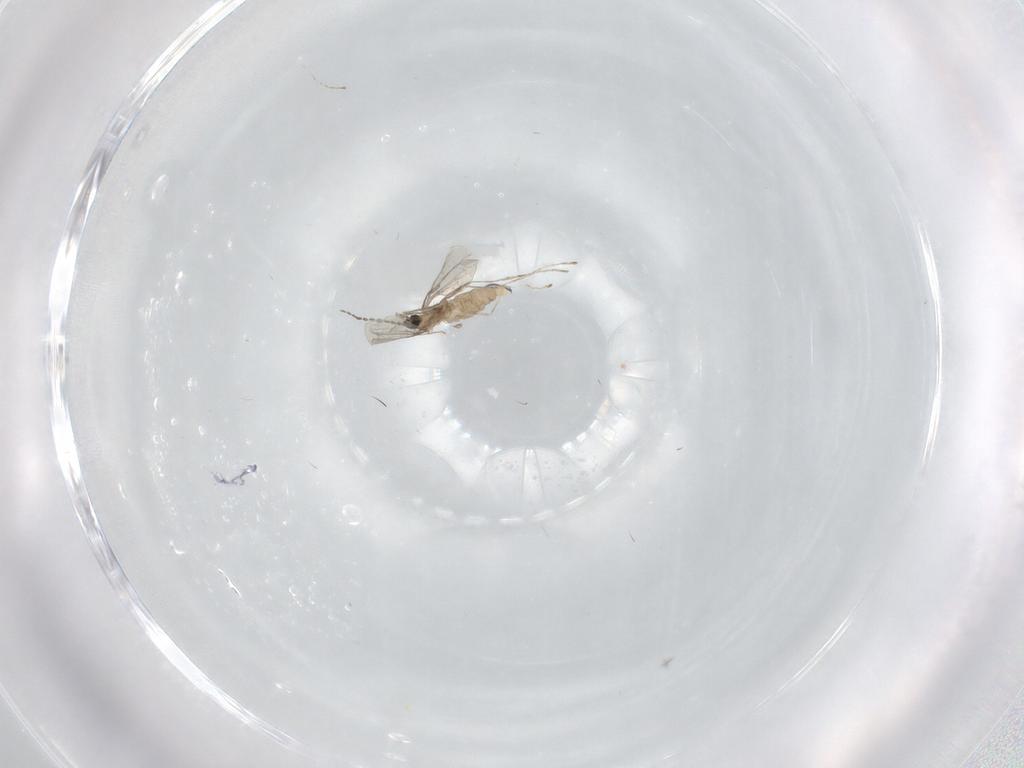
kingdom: Animalia
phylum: Arthropoda
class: Insecta
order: Diptera
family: Cecidomyiidae
